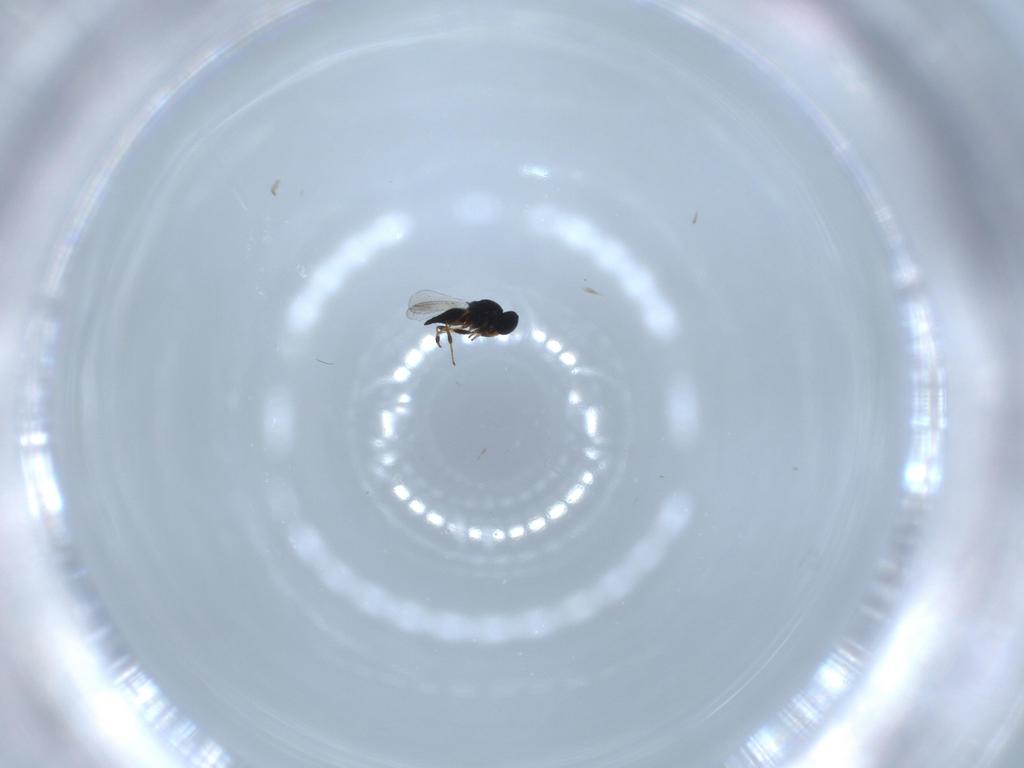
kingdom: Animalia
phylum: Arthropoda
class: Insecta
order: Hymenoptera
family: Platygastridae
